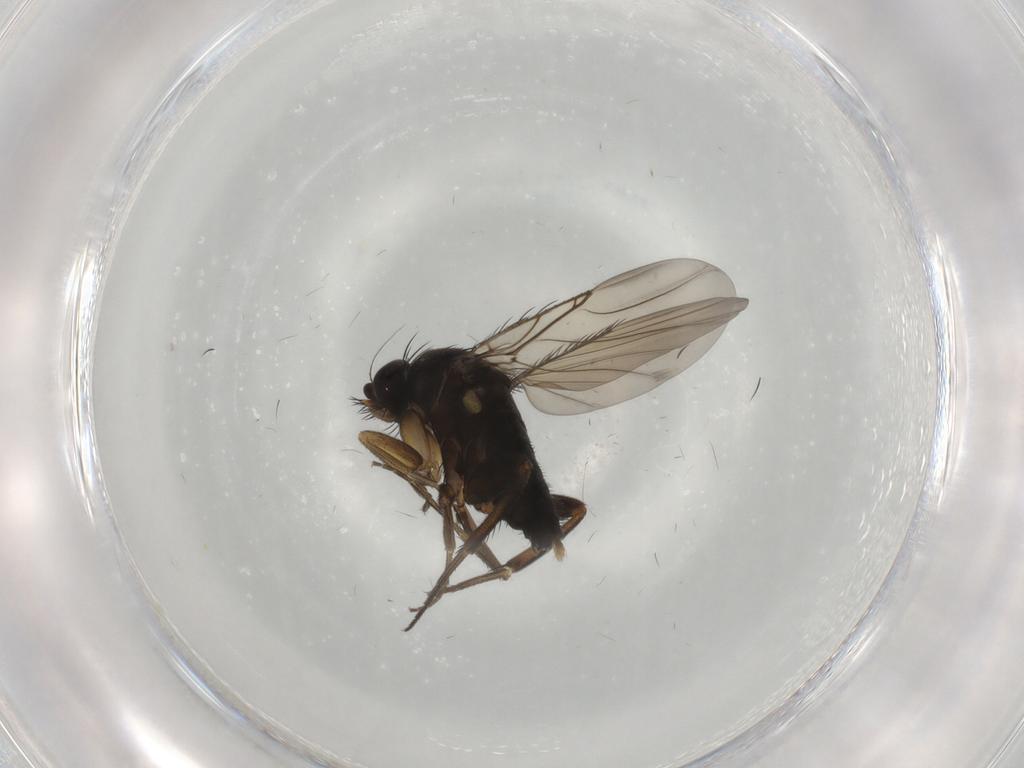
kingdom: Animalia
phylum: Arthropoda
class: Insecta
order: Diptera
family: Phoridae
